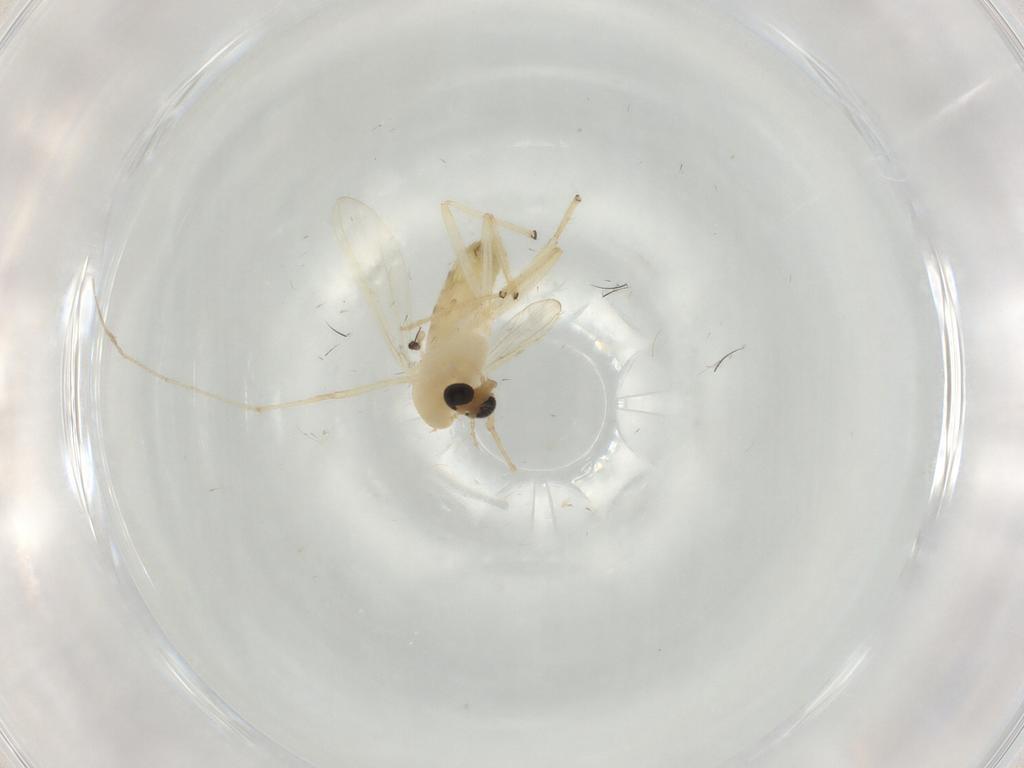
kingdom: Animalia
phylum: Arthropoda
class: Insecta
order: Diptera
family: Chironomidae
